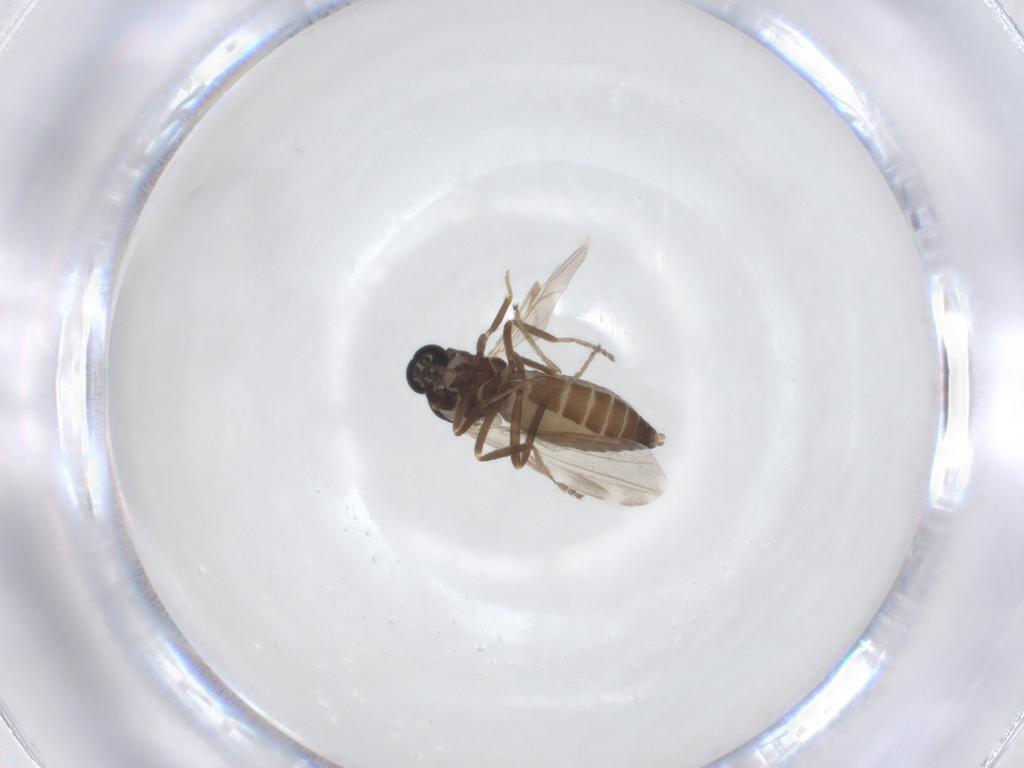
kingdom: Animalia
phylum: Arthropoda
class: Insecta
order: Diptera
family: Ceratopogonidae
